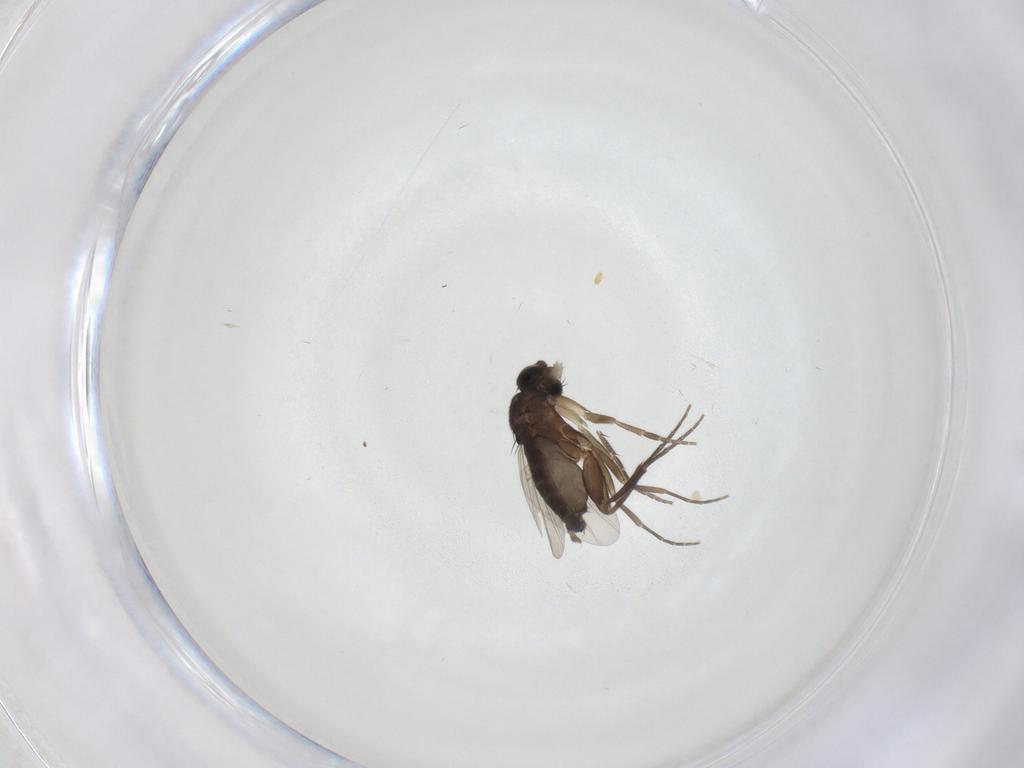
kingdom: Animalia
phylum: Arthropoda
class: Insecta
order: Diptera
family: Phoridae
